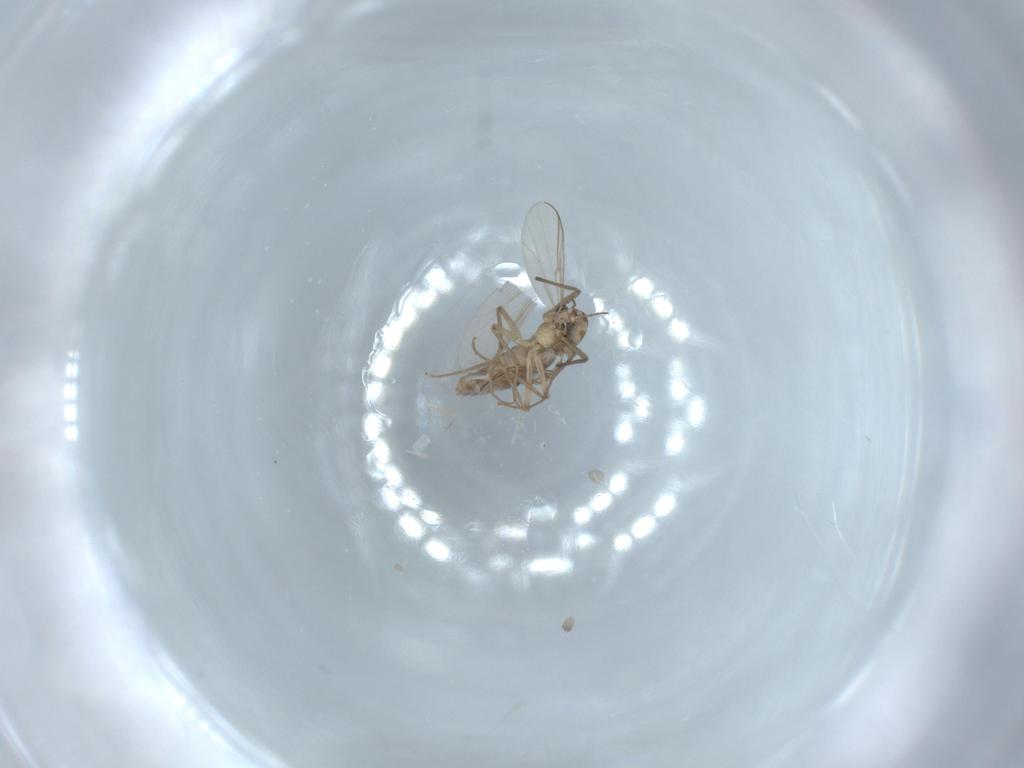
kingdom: Animalia
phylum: Arthropoda
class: Insecta
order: Diptera
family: Chironomidae
